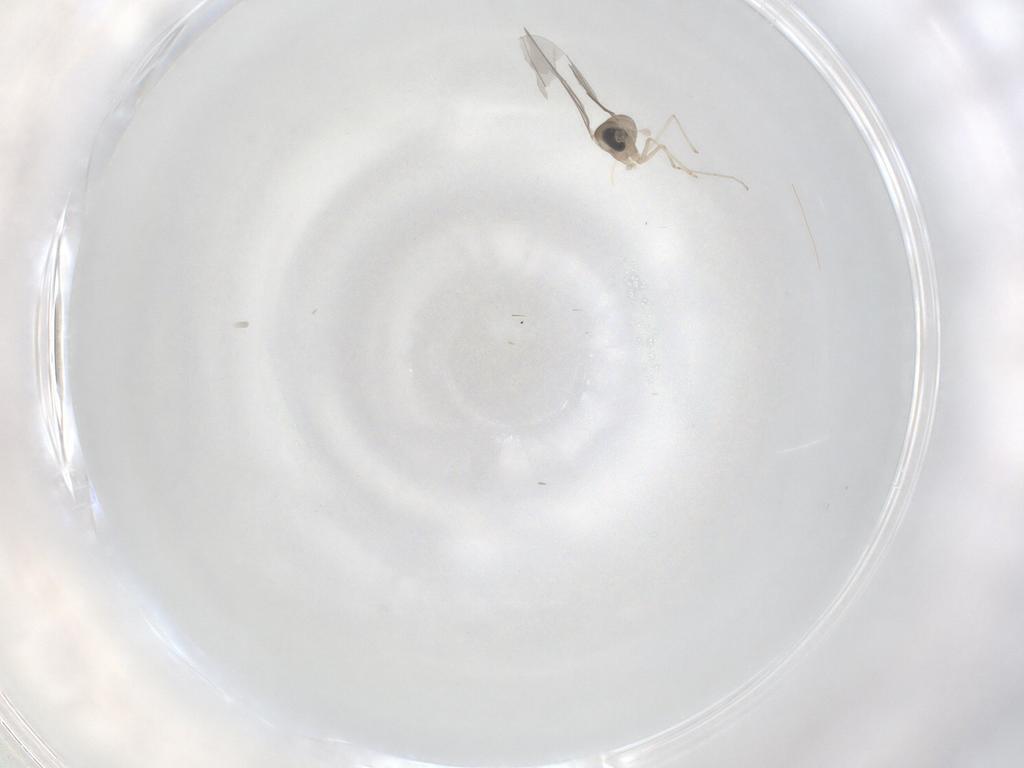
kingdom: Animalia
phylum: Arthropoda
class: Insecta
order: Diptera
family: Cecidomyiidae
